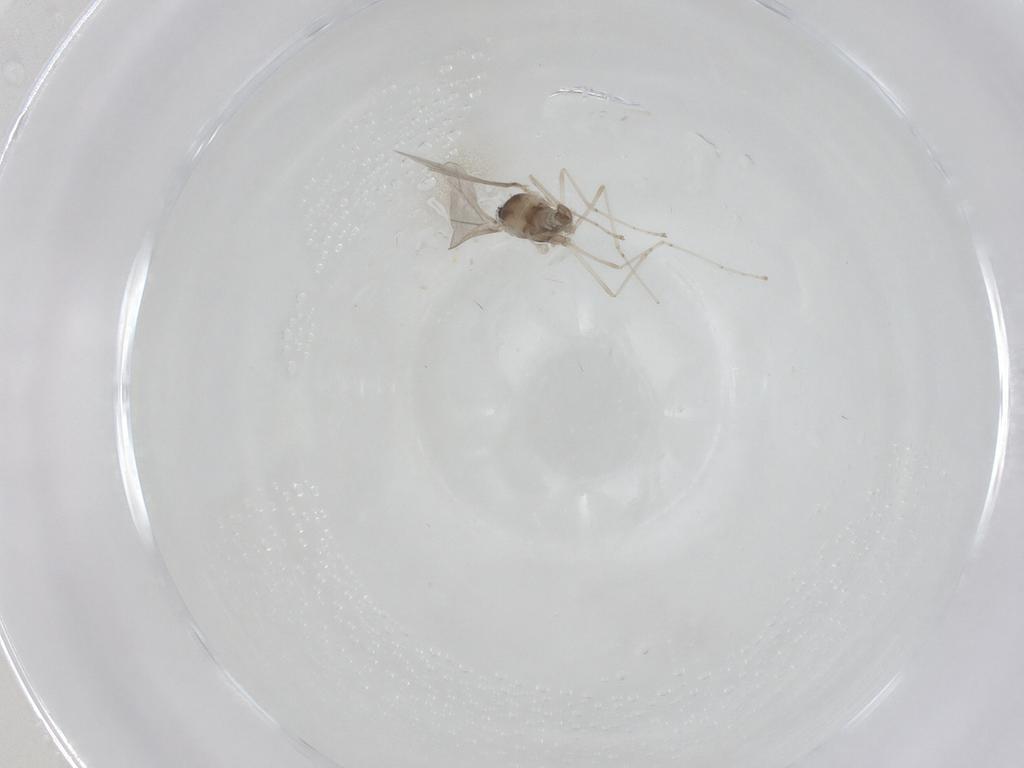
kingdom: Animalia
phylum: Arthropoda
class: Insecta
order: Diptera
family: Cecidomyiidae
